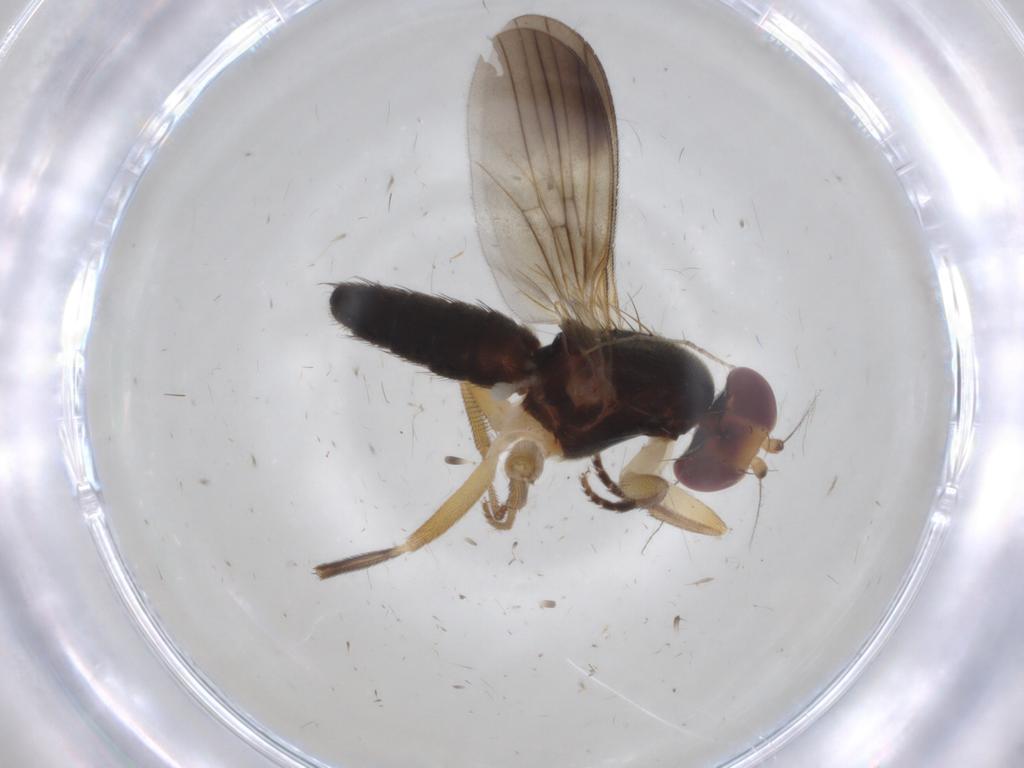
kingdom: Animalia
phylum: Arthropoda
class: Insecta
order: Diptera
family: Clusiidae
